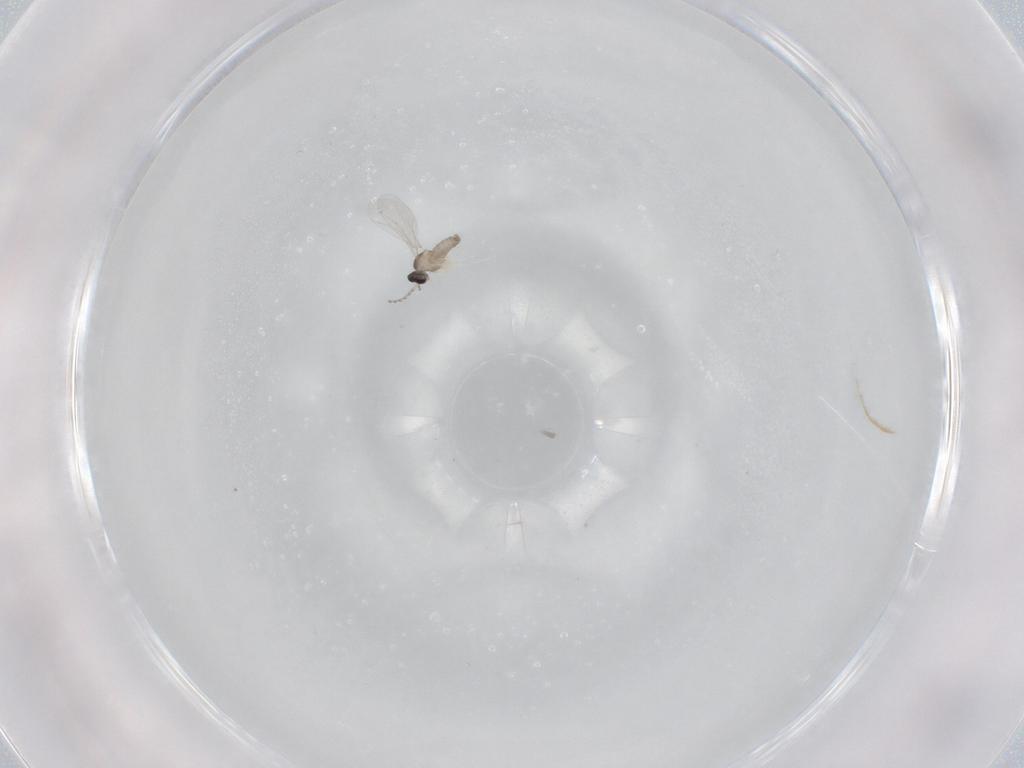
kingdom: Animalia
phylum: Arthropoda
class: Insecta
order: Diptera
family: Cecidomyiidae
